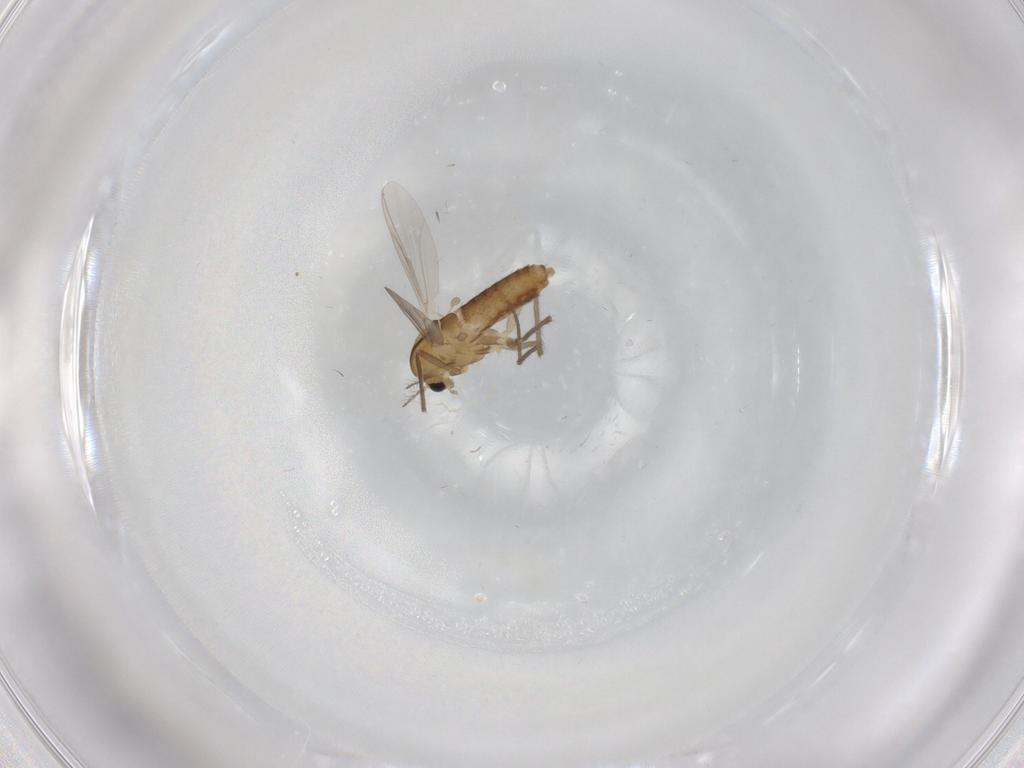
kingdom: Animalia
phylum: Arthropoda
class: Insecta
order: Diptera
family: Chironomidae
